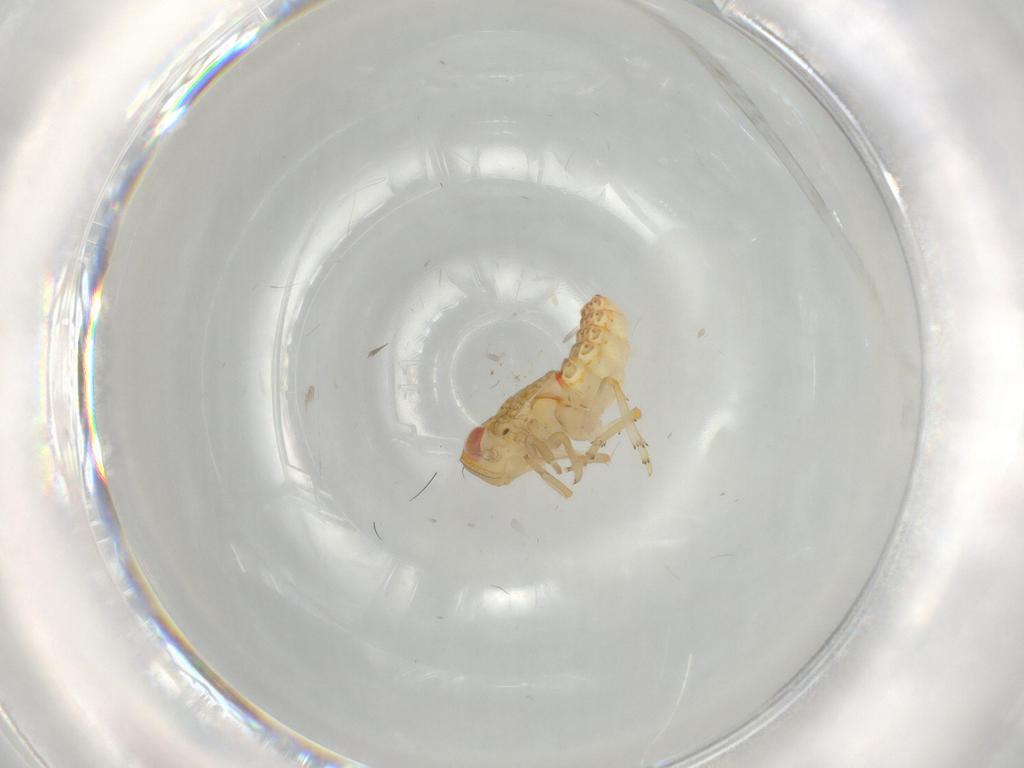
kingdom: Animalia
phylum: Arthropoda
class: Insecta
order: Hemiptera
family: Issidae
